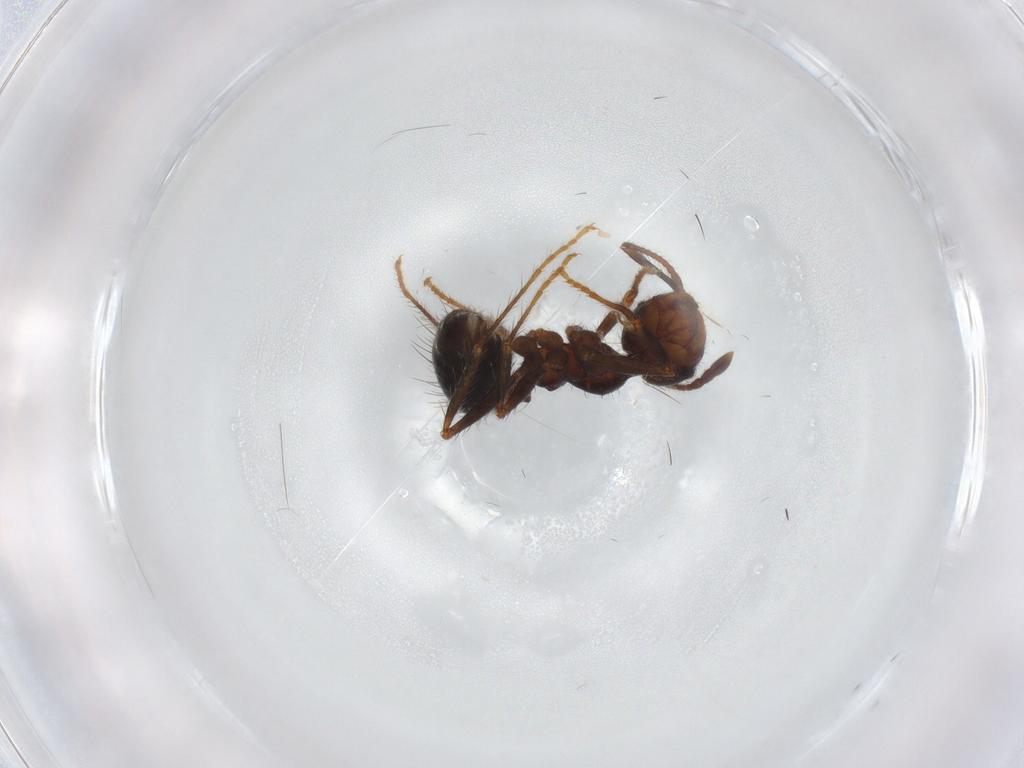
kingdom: Animalia
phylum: Arthropoda
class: Insecta
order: Hymenoptera
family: Formicidae
